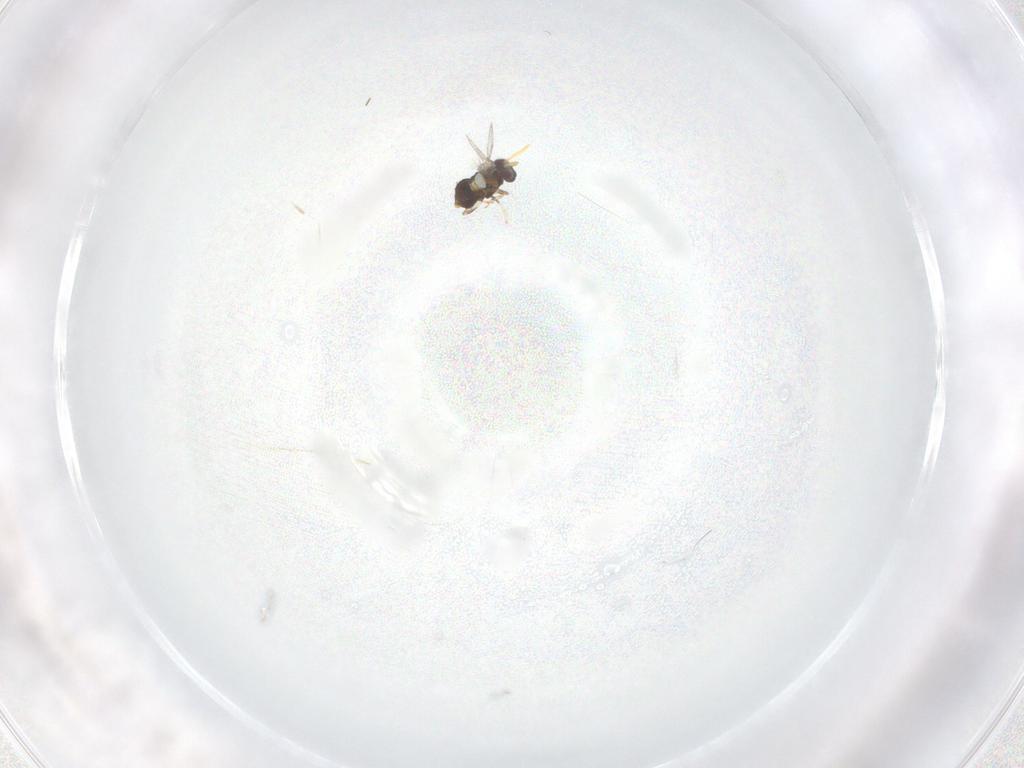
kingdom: Animalia
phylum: Arthropoda
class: Insecta
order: Hymenoptera
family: Aphelinidae
